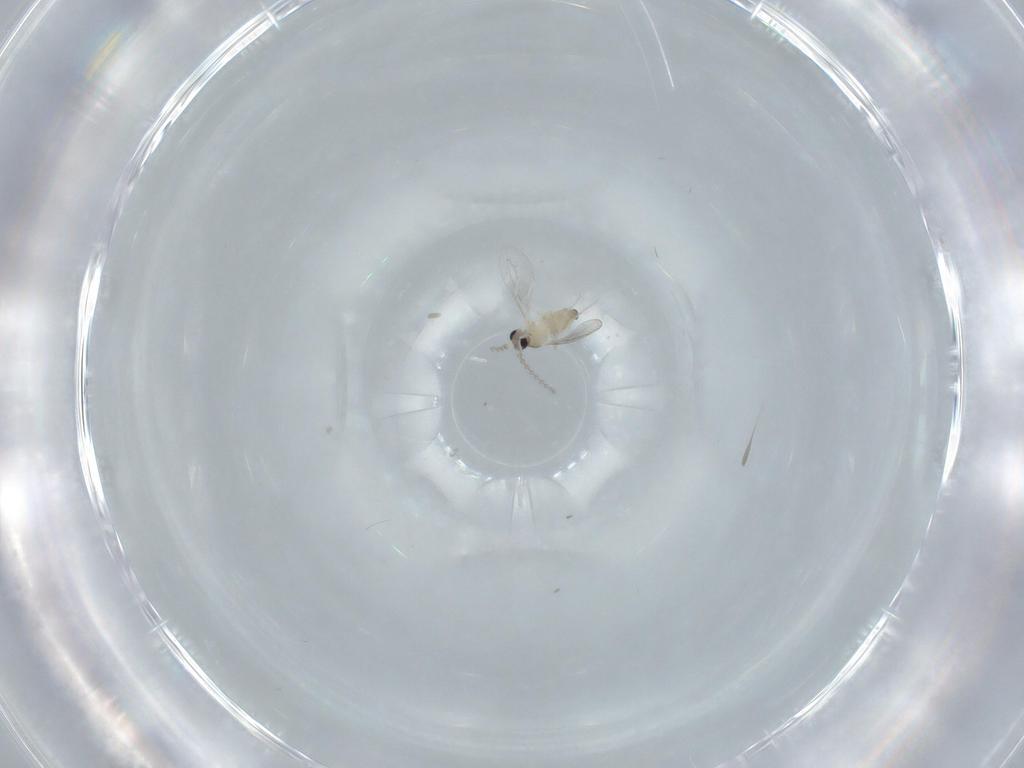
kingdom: Animalia
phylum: Arthropoda
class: Insecta
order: Diptera
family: Cecidomyiidae
